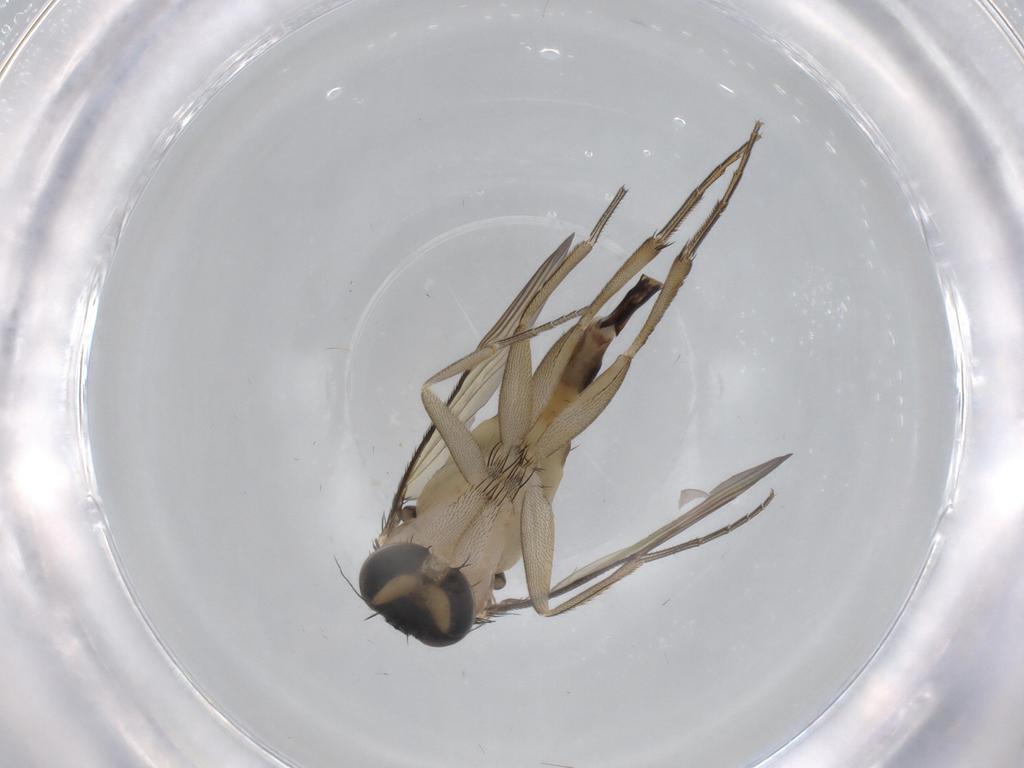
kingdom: Animalia
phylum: Arthropoda
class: Insecta
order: Diptera
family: Phoridae
